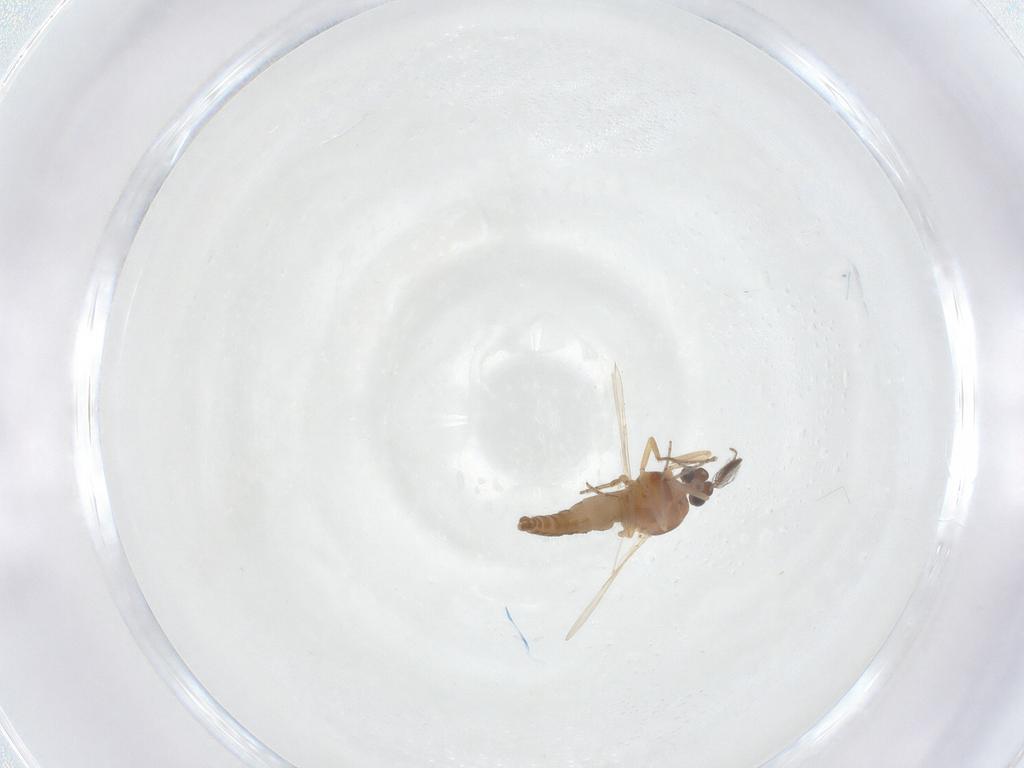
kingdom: Animalia
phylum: Arthropoda
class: Insecta
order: Diptera
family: Ceratopogonidae
